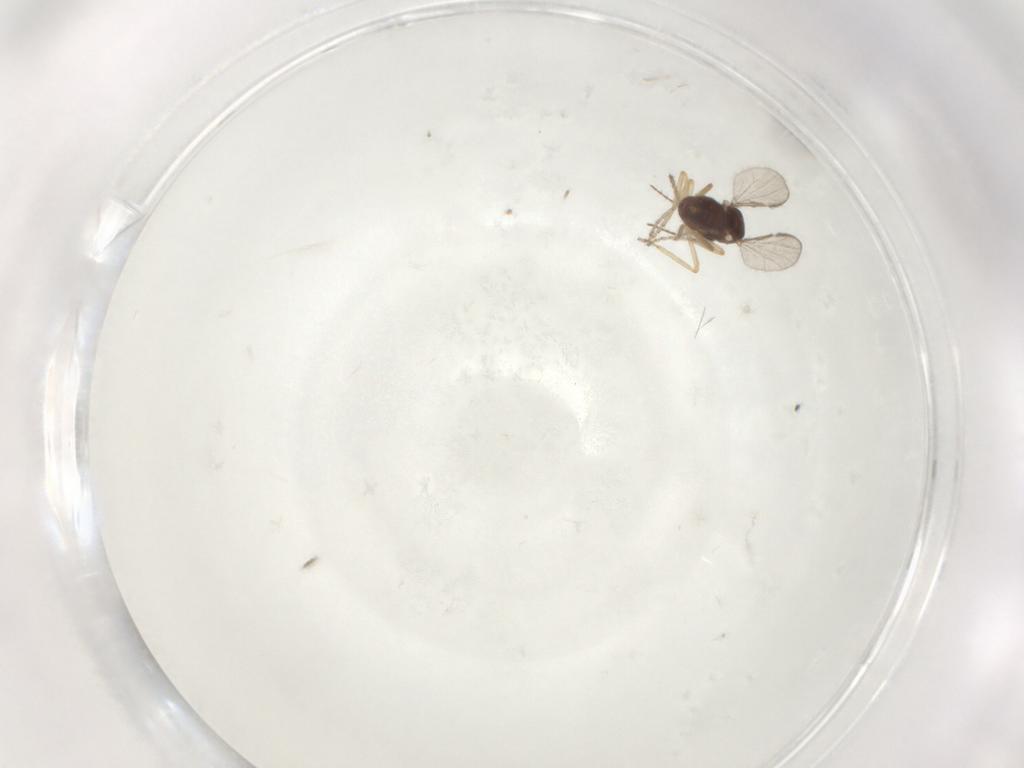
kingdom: Animalia
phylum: Arthropoda
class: Insecta
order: Diptera
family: Ceratopogonidae
